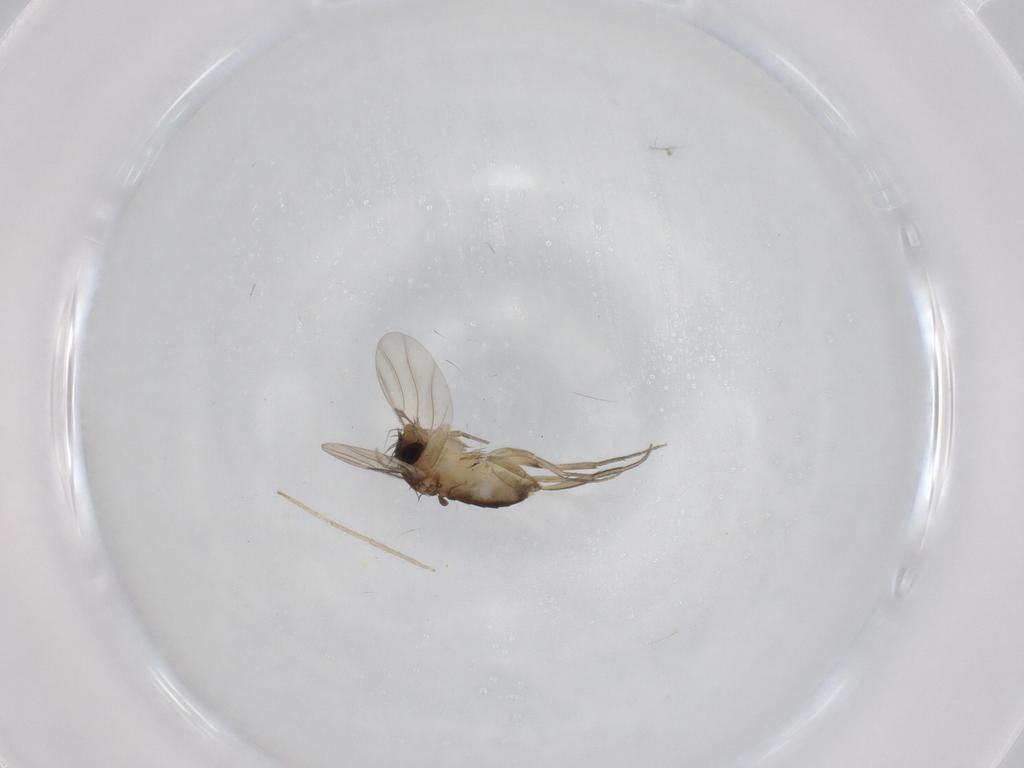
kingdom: Animalia
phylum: Arthropoda
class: Insecta
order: Diptera
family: Phoridae
